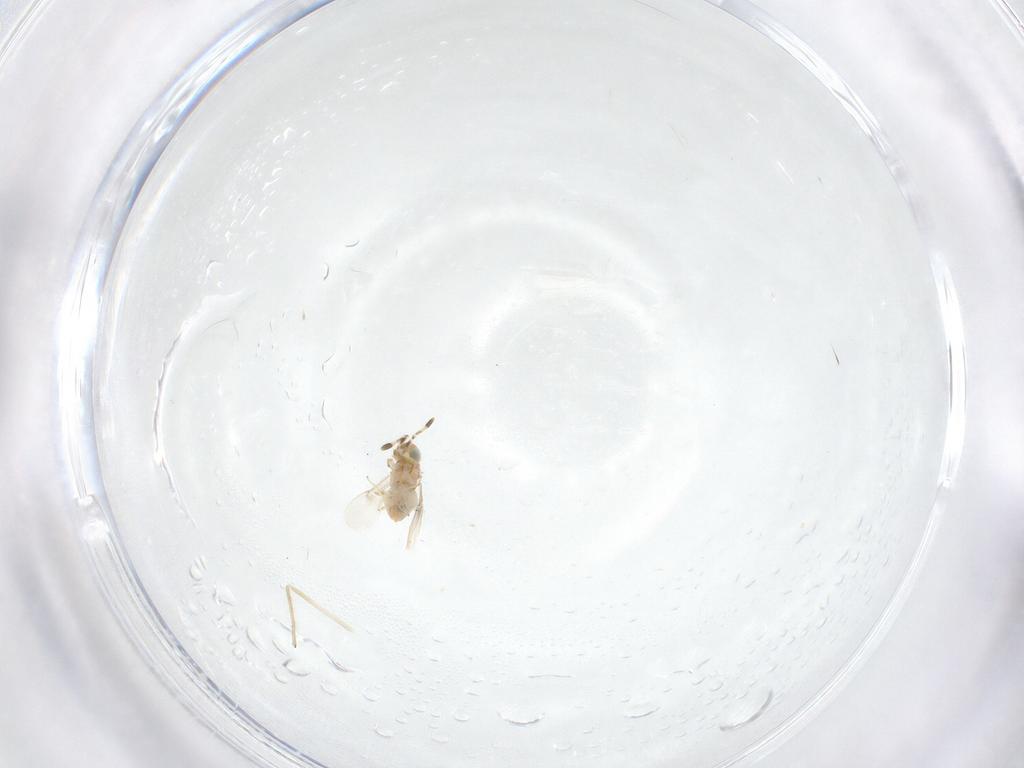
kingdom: Animalia
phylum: Arthropoda
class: Insecta
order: Hymenoptera
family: Encyrtidae
